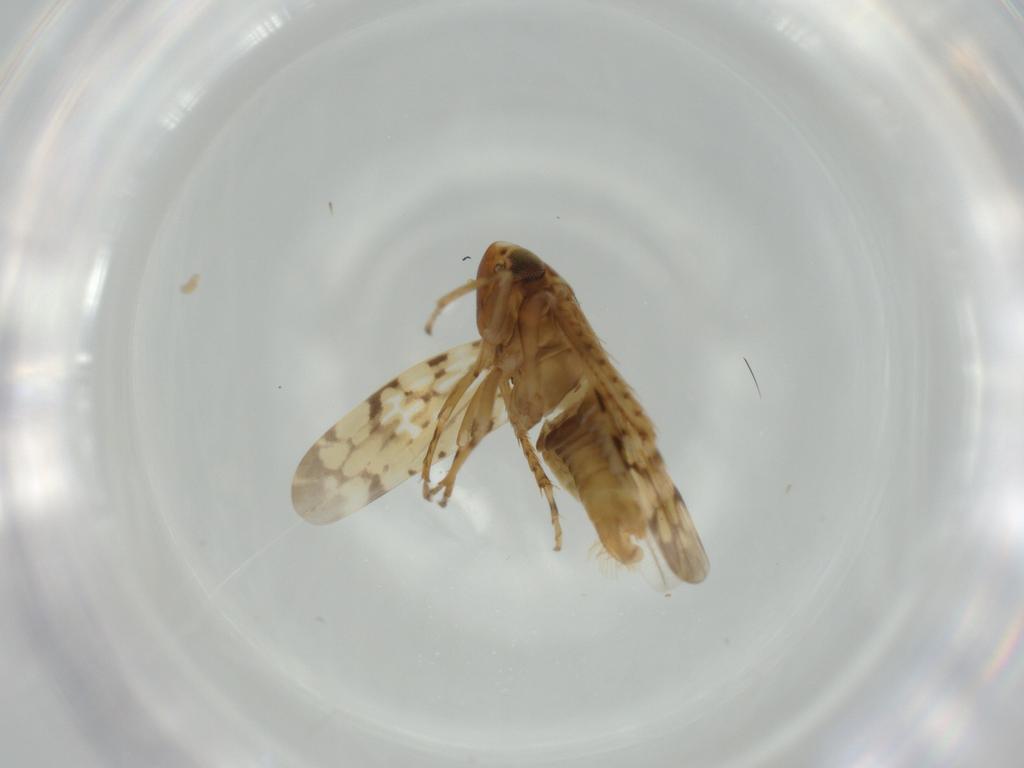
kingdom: Animalia
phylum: Arthropoda
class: Insecta
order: Hemiptera
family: Cicadellidae
